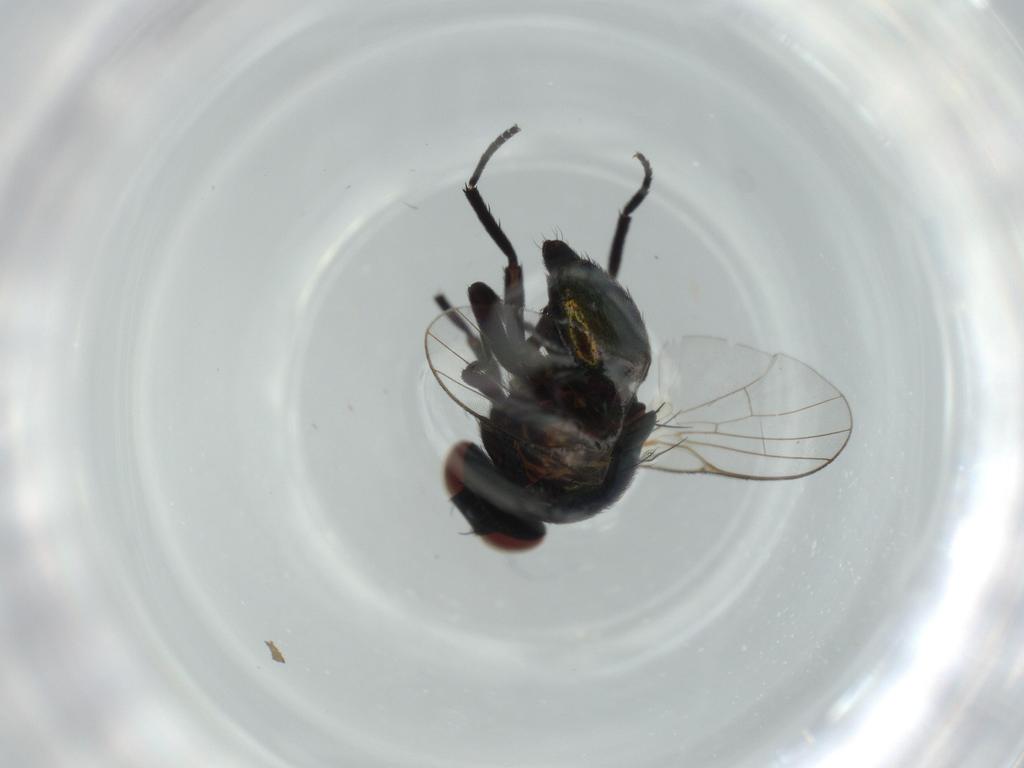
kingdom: Animalia
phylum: Arthropoda
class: Insecta
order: Diptera
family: Agromyzidae
